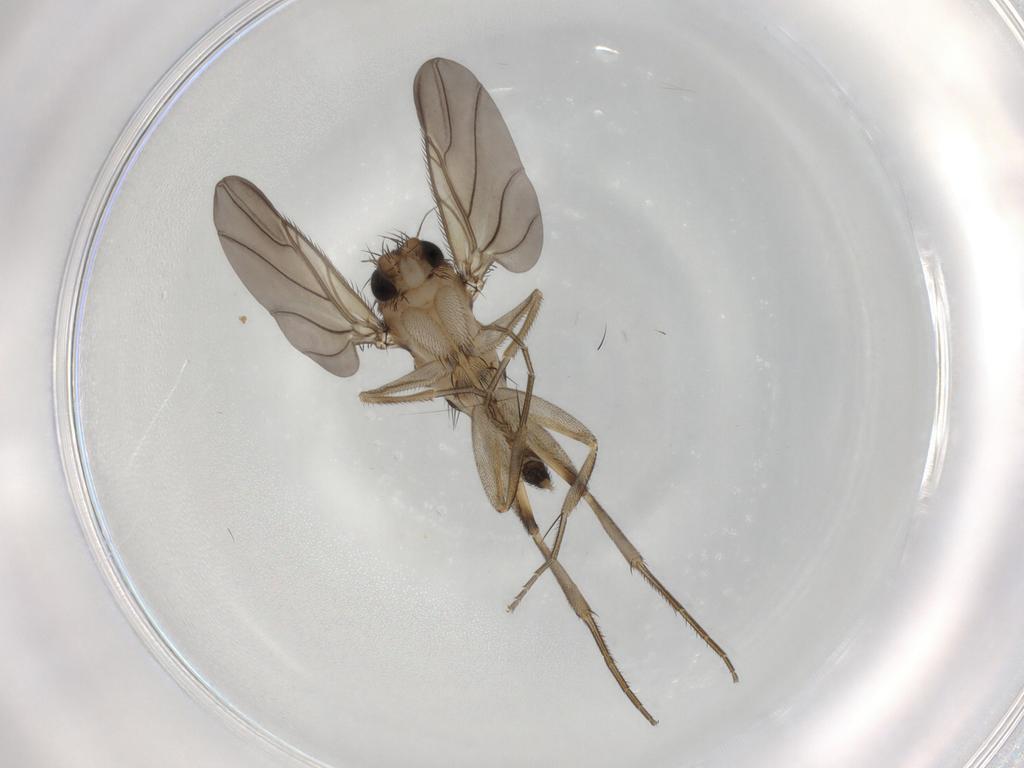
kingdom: Animalia
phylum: Arthropoda
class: Insecta
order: Diptera
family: Phoridae
